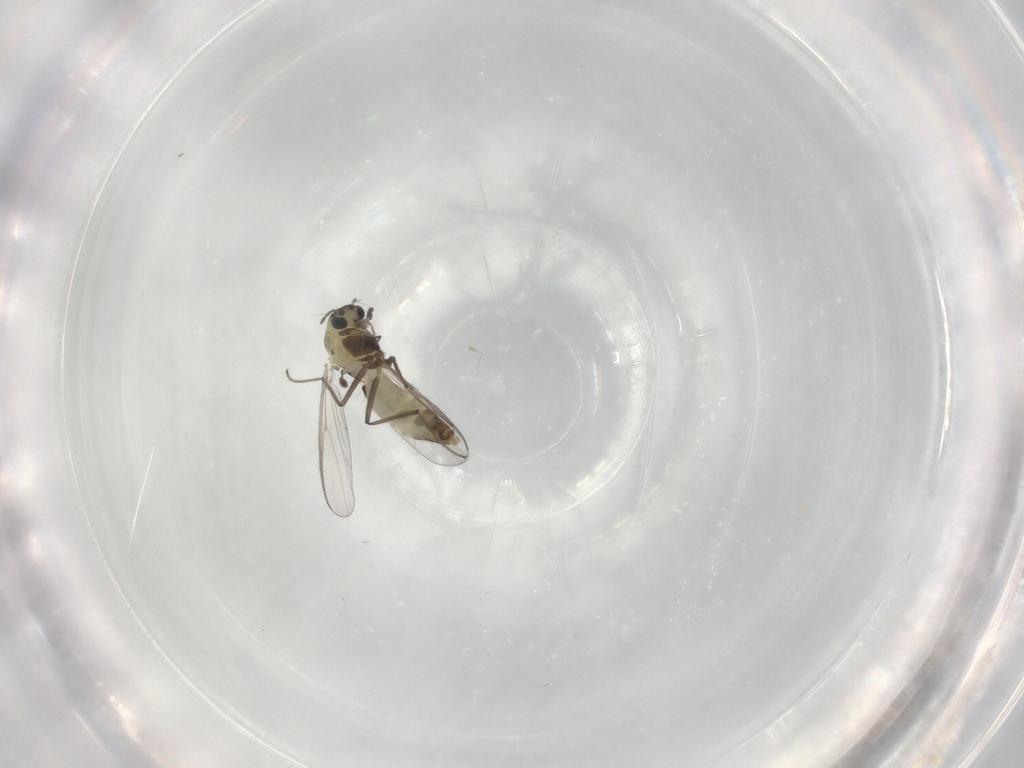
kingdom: Animalia
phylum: Arthropoda
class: Insecta
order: Diptera
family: Chironomidae
